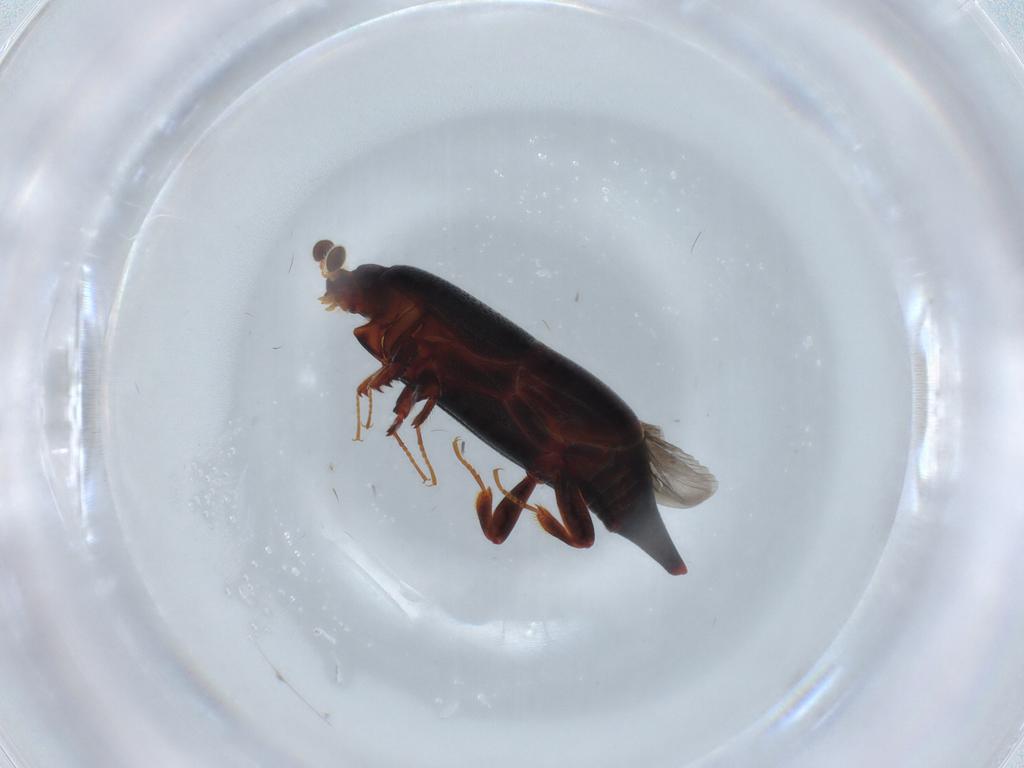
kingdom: Animalia
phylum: Arthropoda
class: Insecta
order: Coleoptera
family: Histeridae
